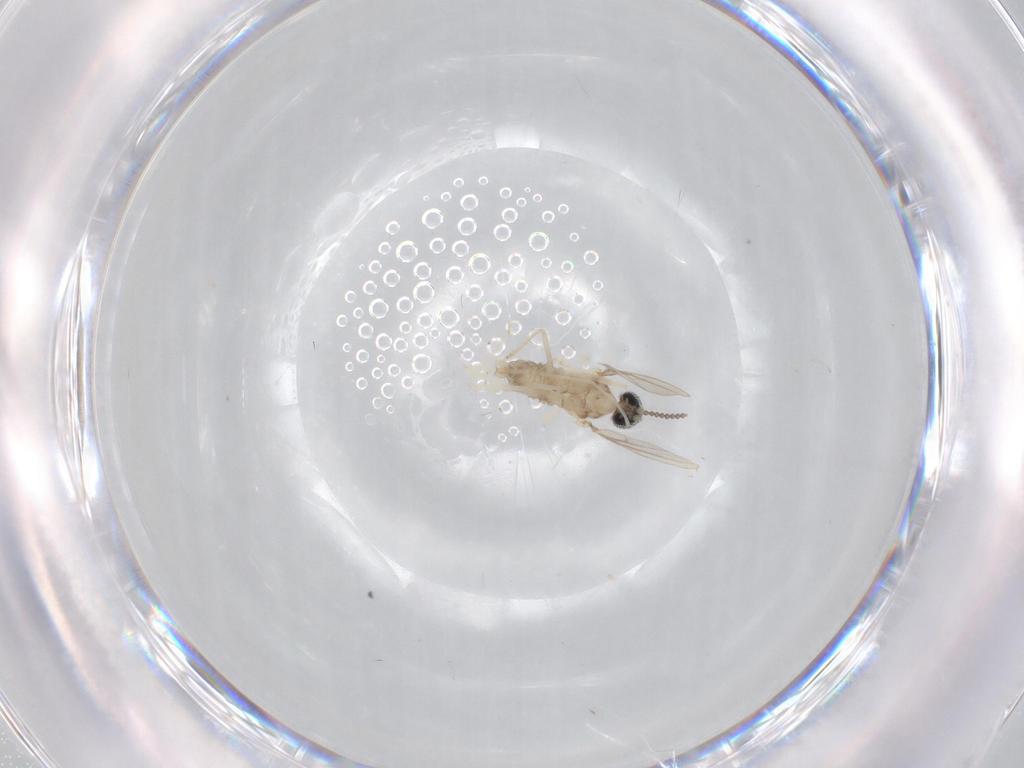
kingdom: Animalia
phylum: Arthropoda
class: Insecta
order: Diptera
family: Cecidomyiidae
